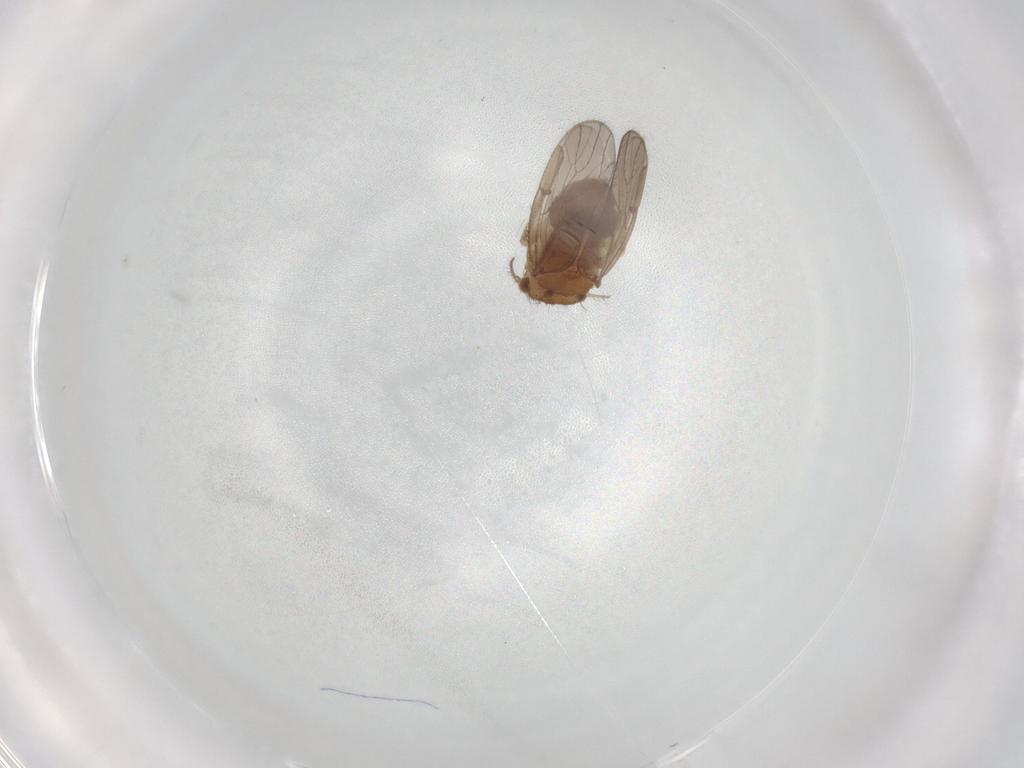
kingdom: Animalia
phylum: Arthropoda
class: Insecta
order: Psocodea
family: Ectopsocidae
